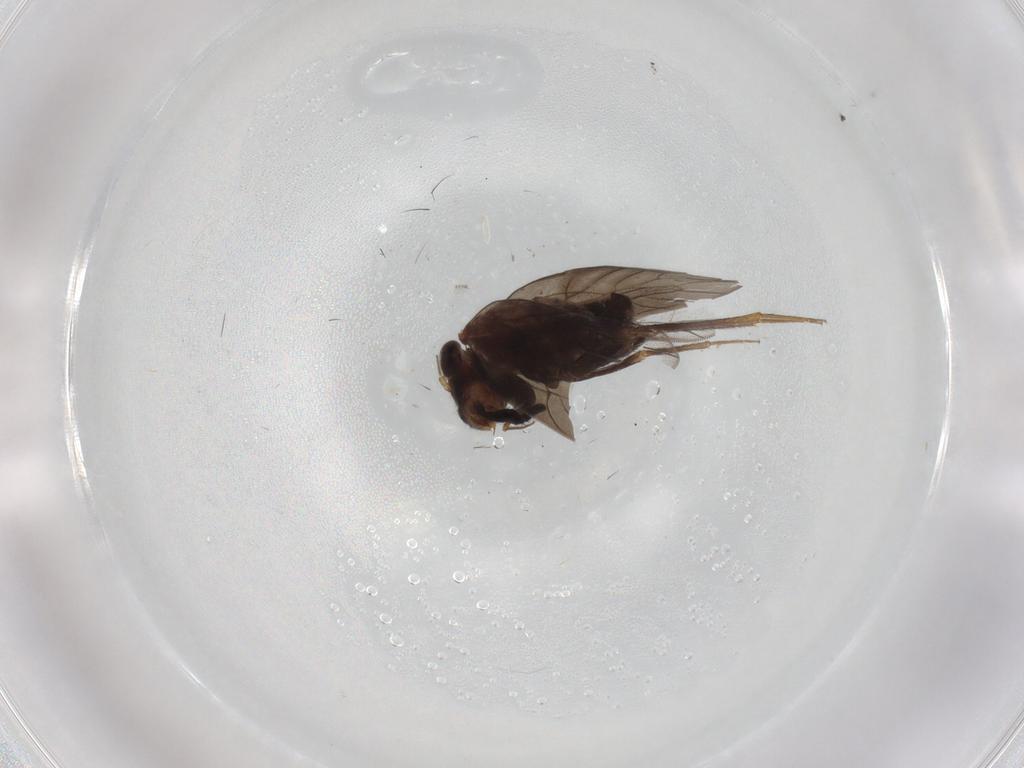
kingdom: Animalia
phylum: Arthropoda
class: Insecta
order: Psocodea
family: Lepidopsocidae
